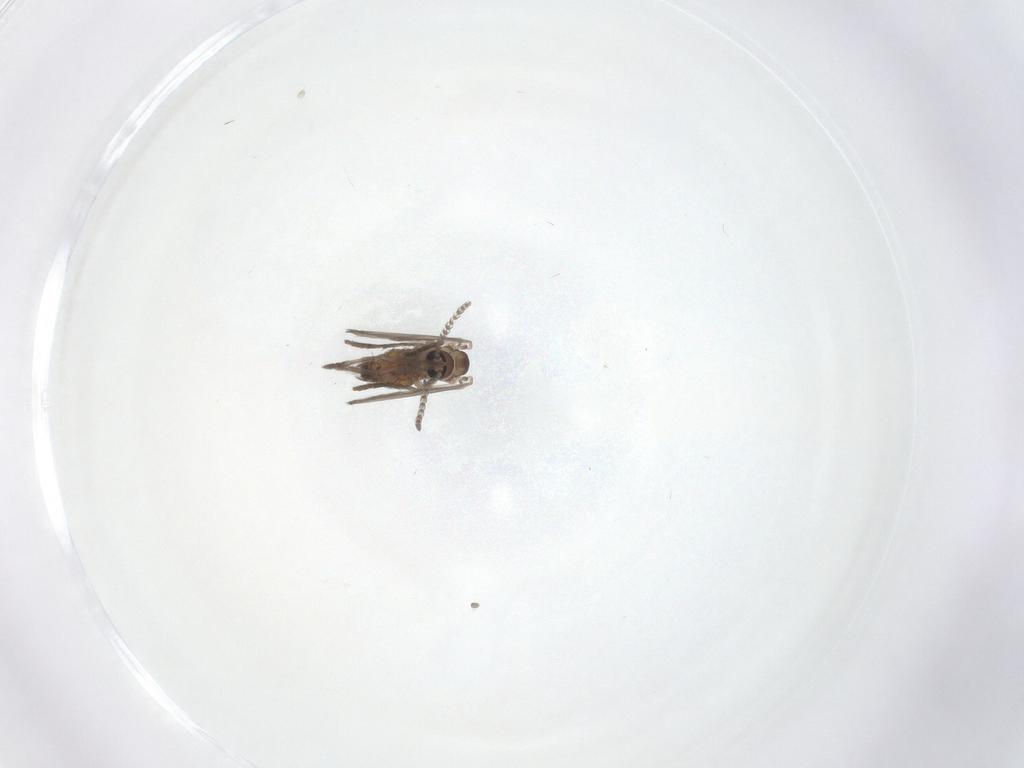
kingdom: Animalia
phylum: Arthropoda
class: Insecta
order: Diptera
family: Psychodidae
